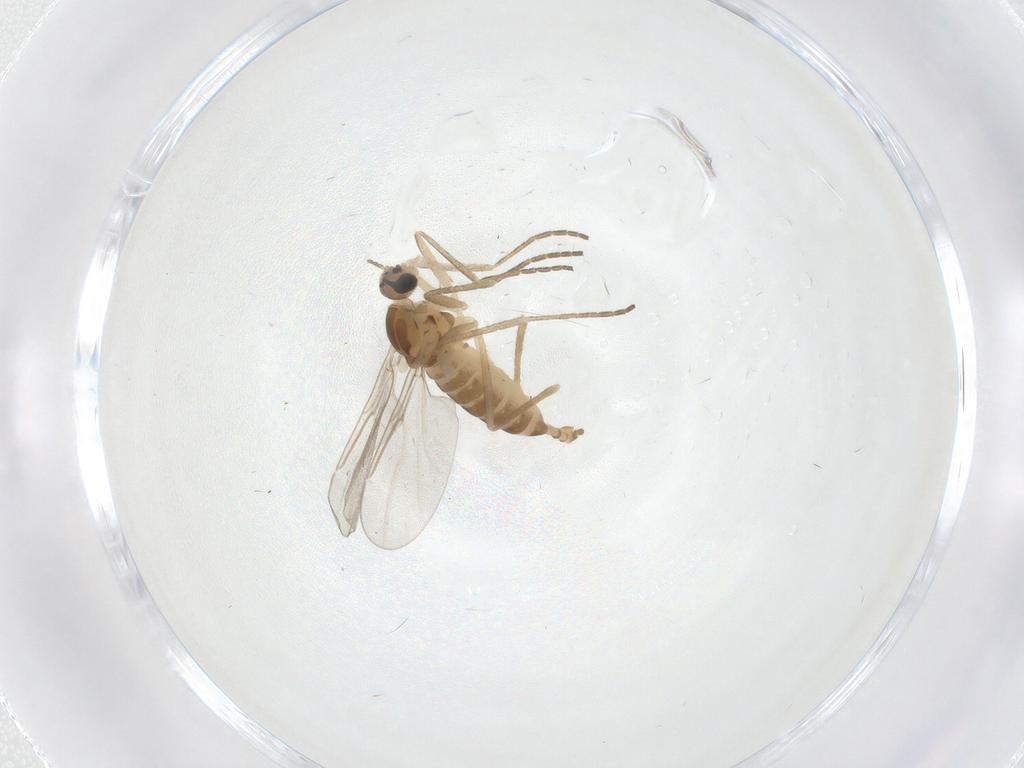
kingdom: Animalia
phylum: Arthropoda
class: Insecta
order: Diptera
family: Cecidomyiidae
